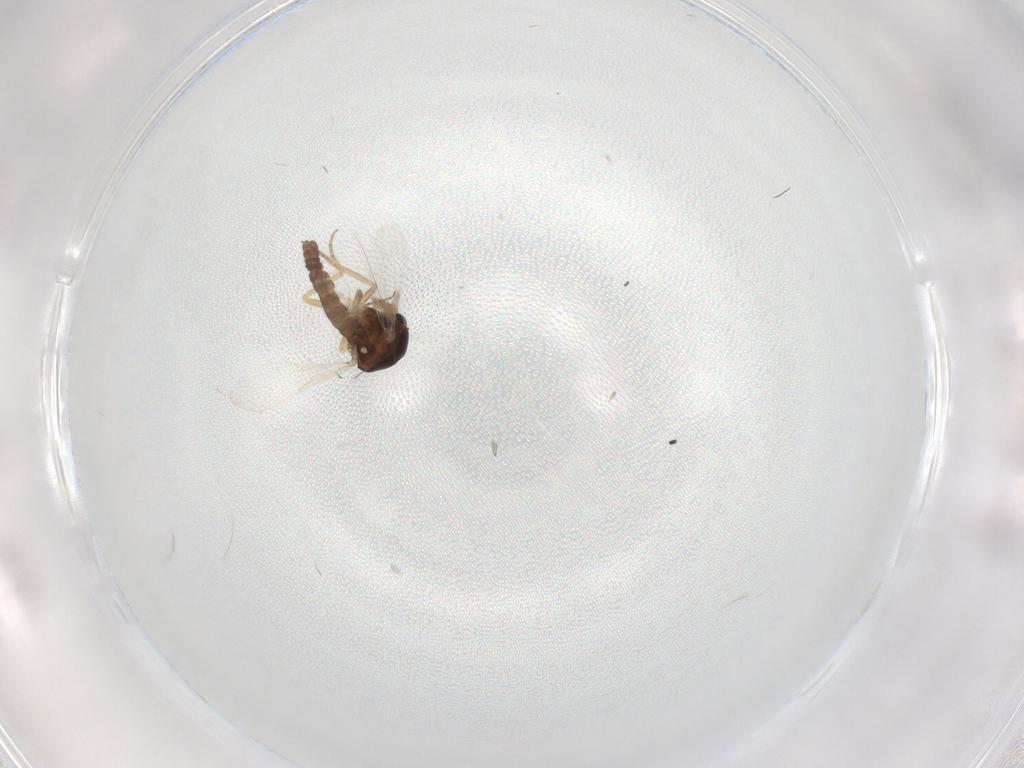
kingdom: Animalia
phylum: Arthropoda
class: Insecta
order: Diptera
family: Ceratopogonidae
